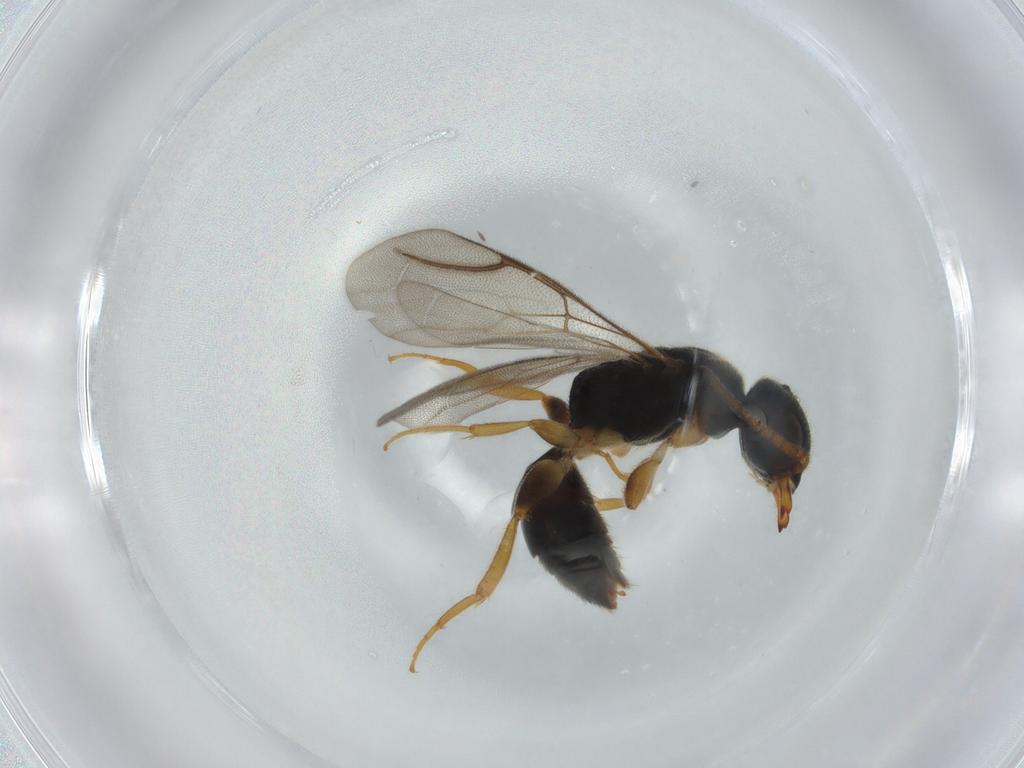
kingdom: Animalia
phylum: Arthropoda
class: Insecta
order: Hymenoptera
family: Bethylidae
